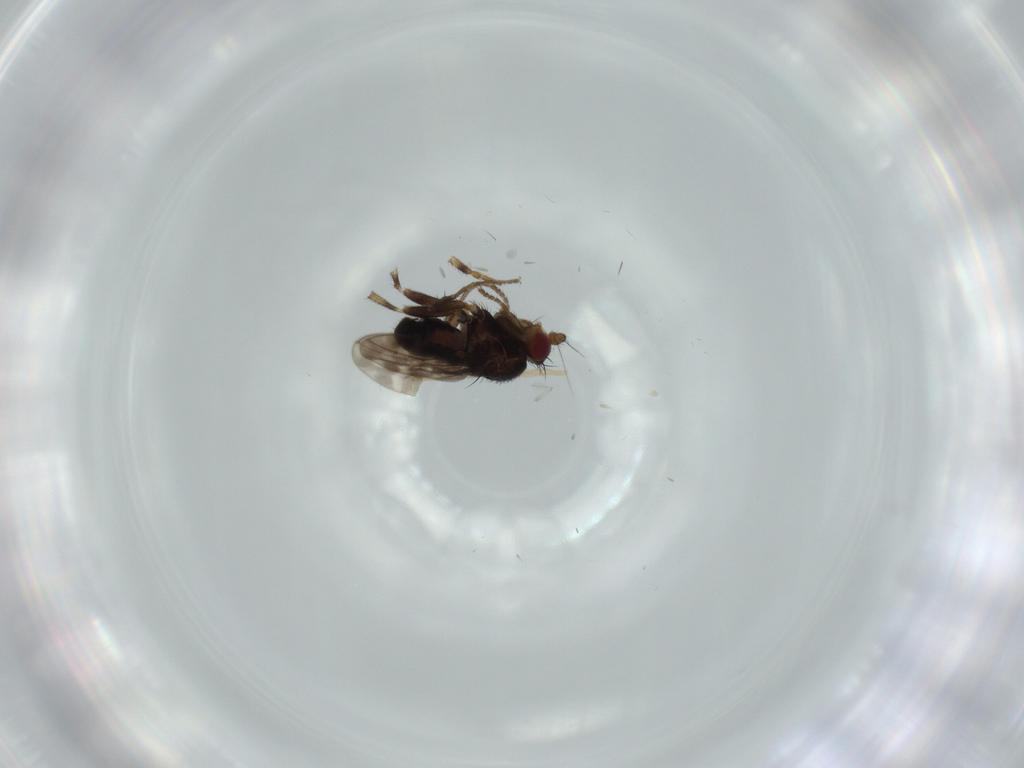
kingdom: Animalia
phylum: Arthropoda
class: Insecta
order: Diptera
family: Sphaeroceridae
